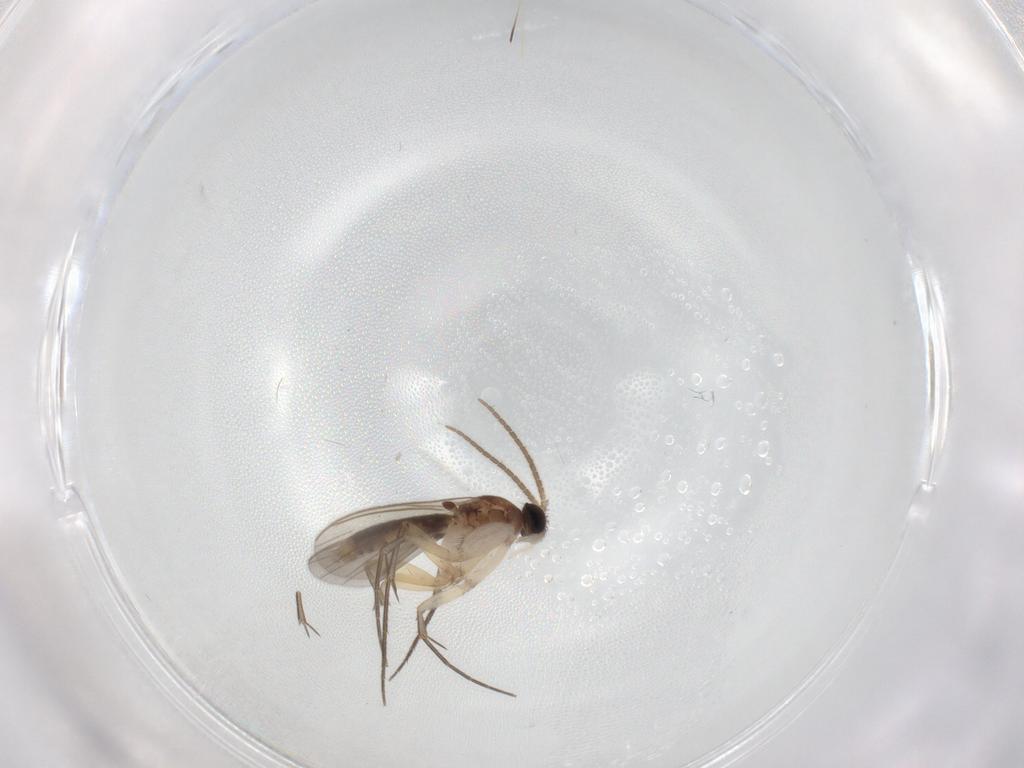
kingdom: Animalia
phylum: Arthropoda
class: Insecta
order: Diptera
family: Mycetophilidae
